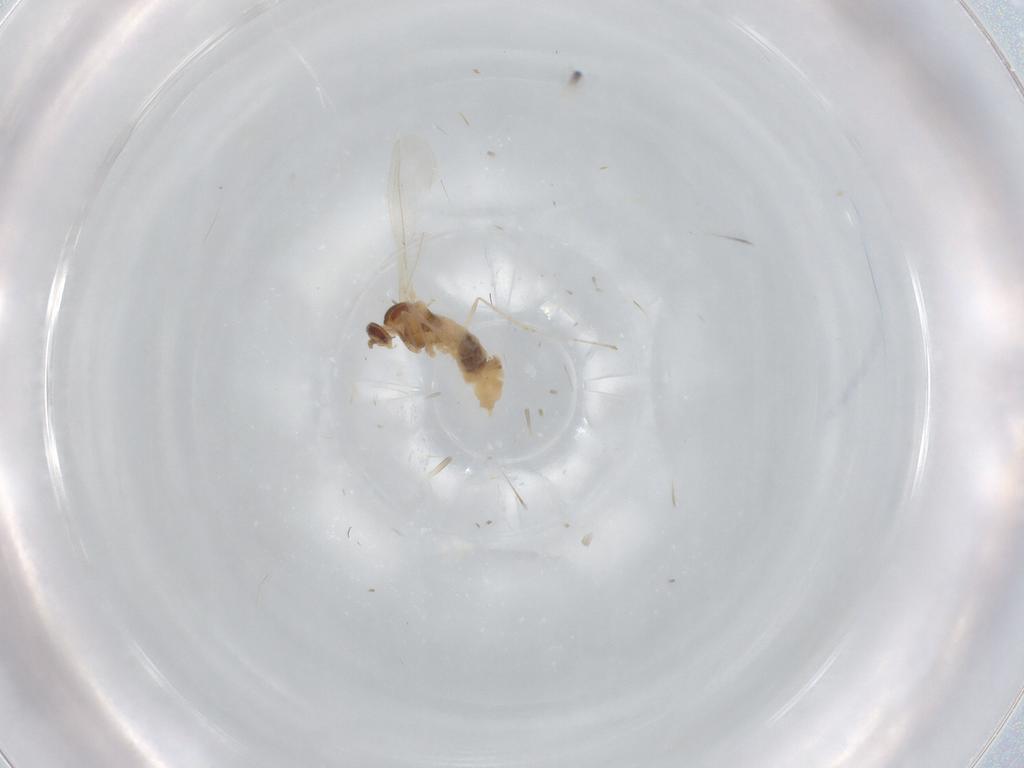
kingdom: Animalia
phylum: Arthropoda
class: Insecta
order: Diptera
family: Cecidomyiidae
